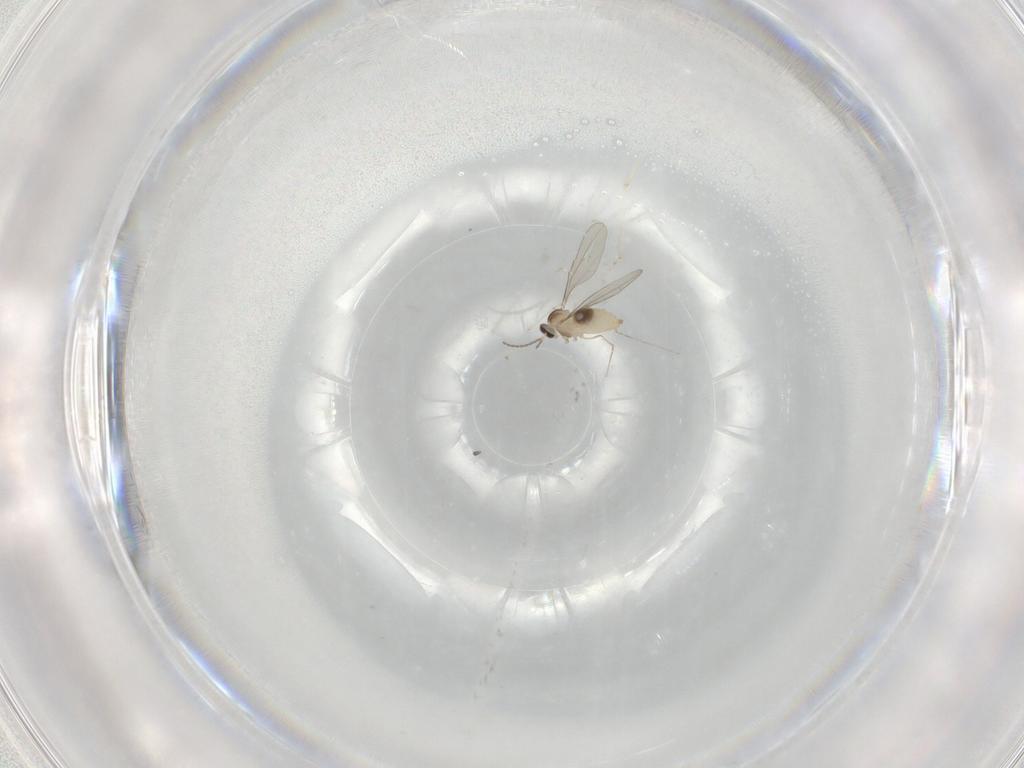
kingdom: Animalia
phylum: Arthropoda
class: Insecta
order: Diptera
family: Cecidomyiidae
